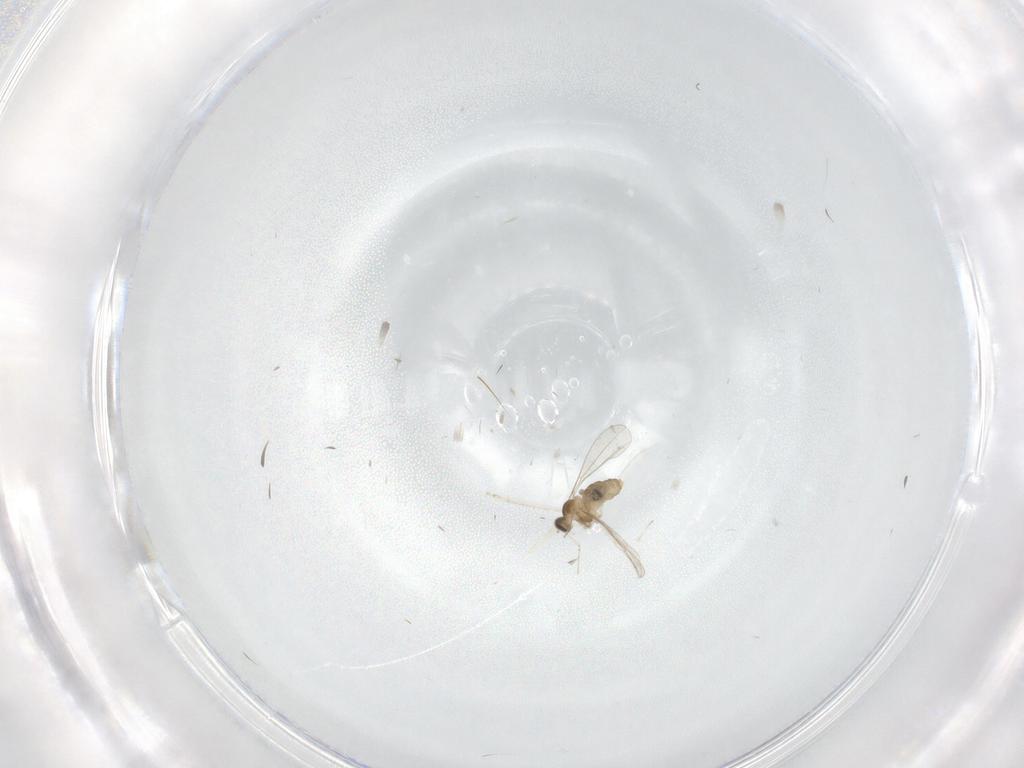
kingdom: Animalia
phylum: Arthropoda
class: Insecta
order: Diptera
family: Cecidomyiidae
